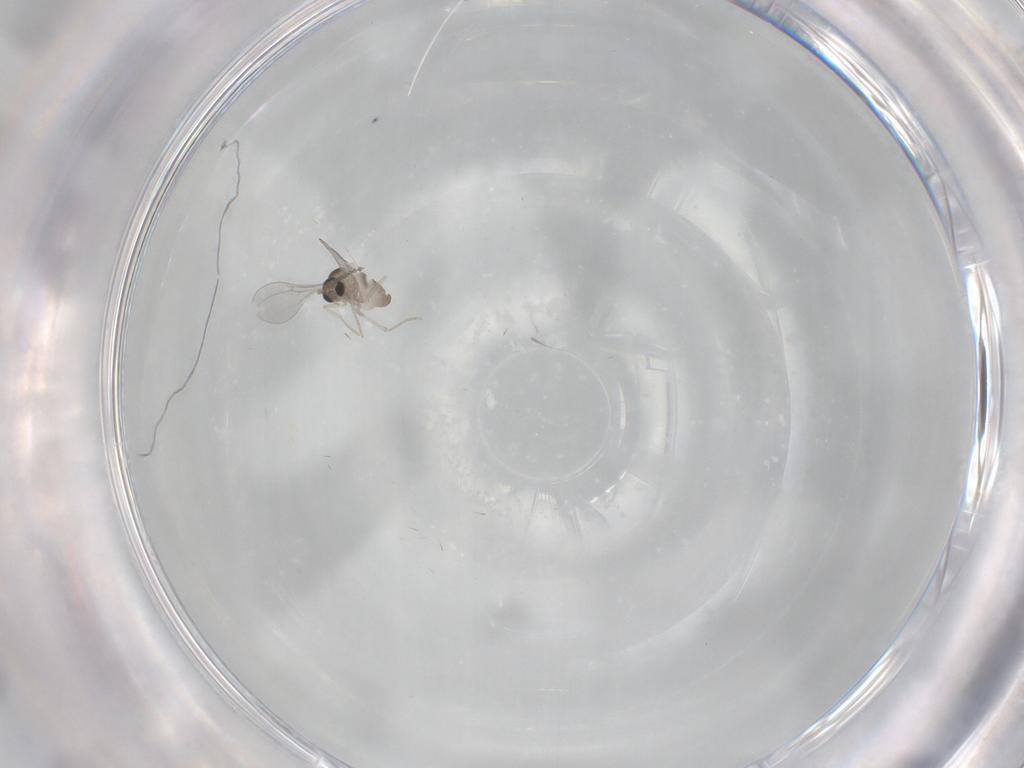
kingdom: Animalia
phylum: Arthropoda
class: Insecta
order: Diptera
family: Cecidomyiidae
